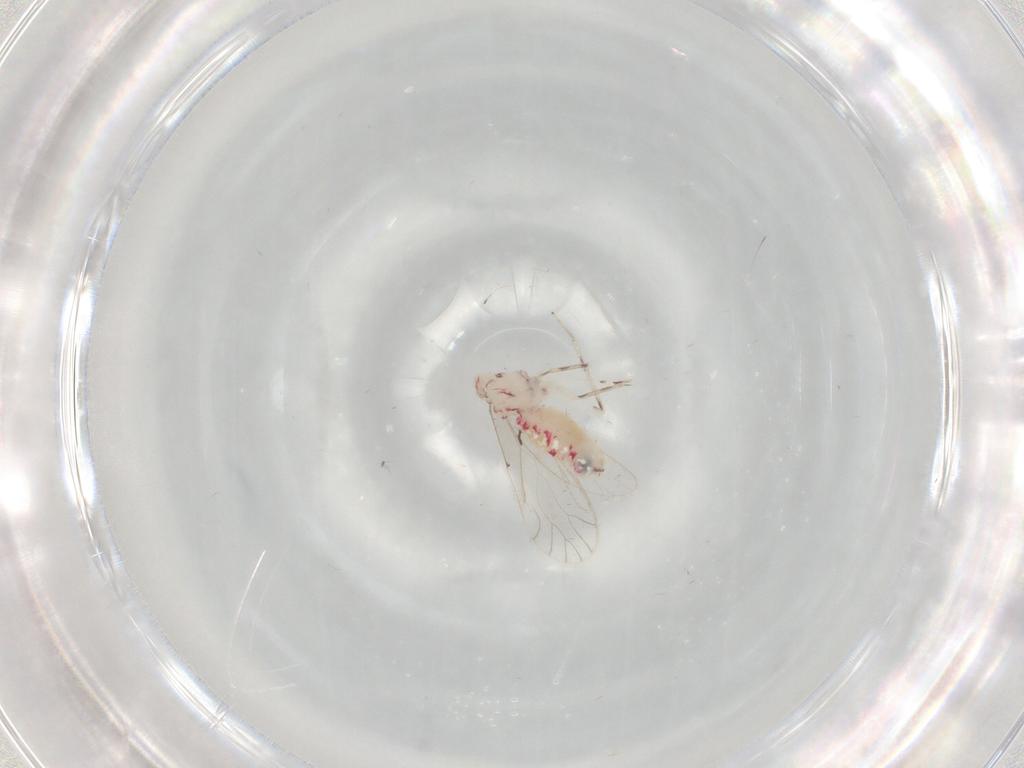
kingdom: Animalia
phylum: Arthropoda
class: Insecta
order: Psocodea
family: Caeciliusidae
